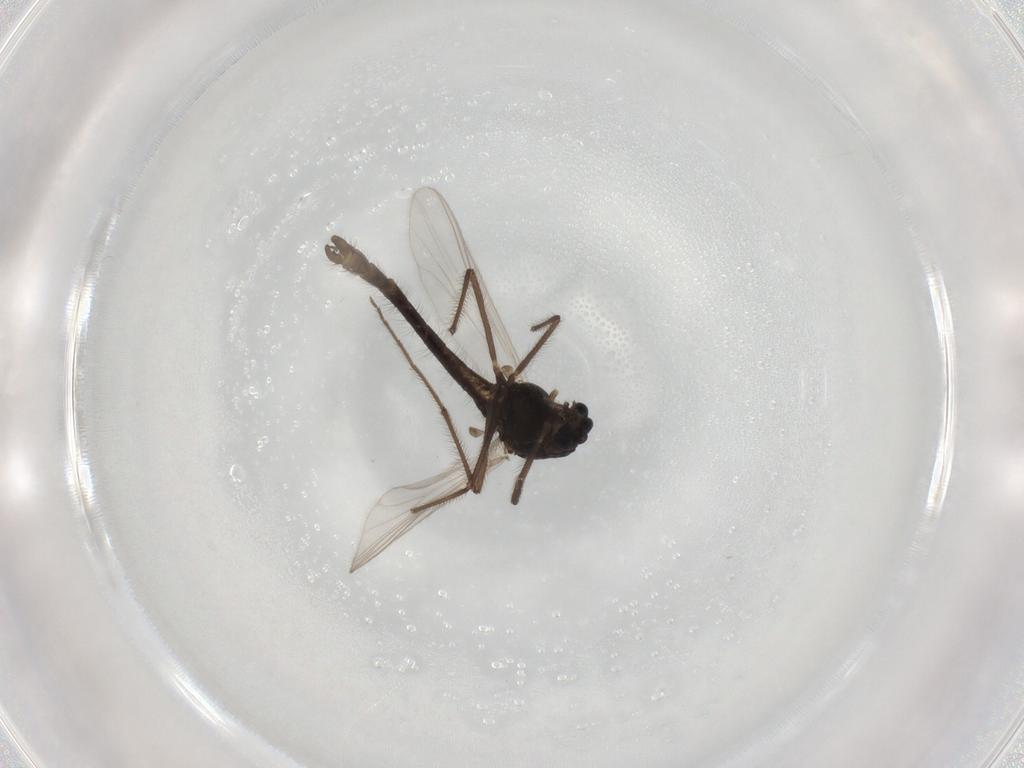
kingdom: Animalia
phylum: Arthropoda
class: Insecta
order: Diptera
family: Chironomidae
